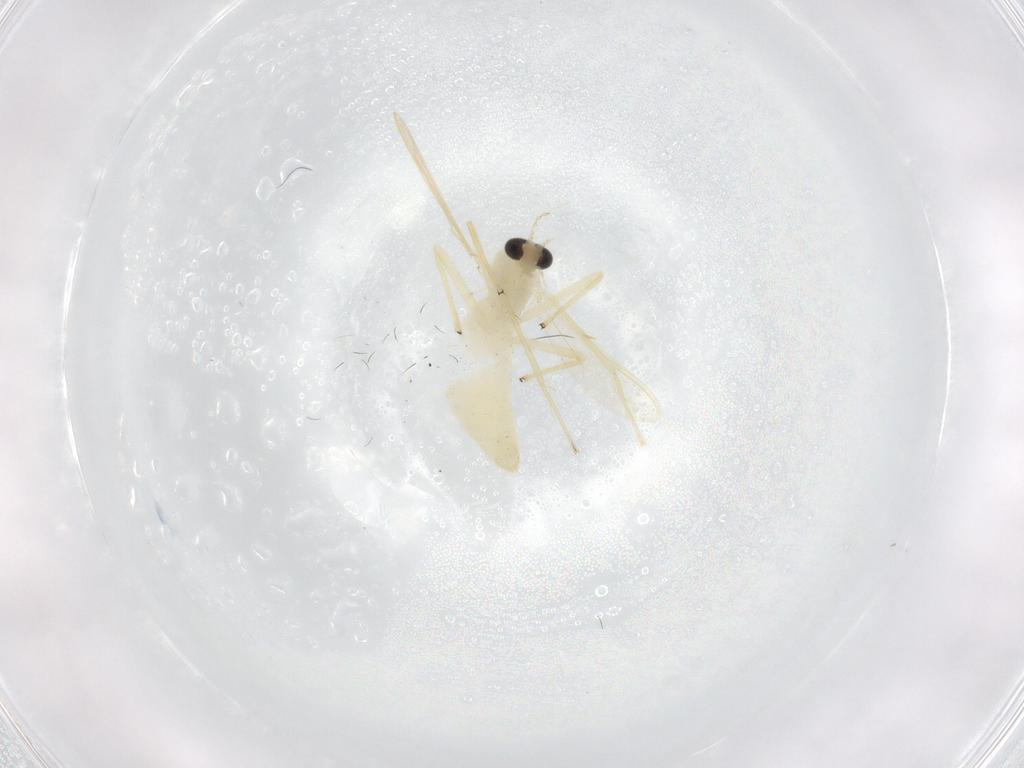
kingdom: Animalia
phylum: Arthropoda
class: Insecta
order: Diptera
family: Chironomidae
